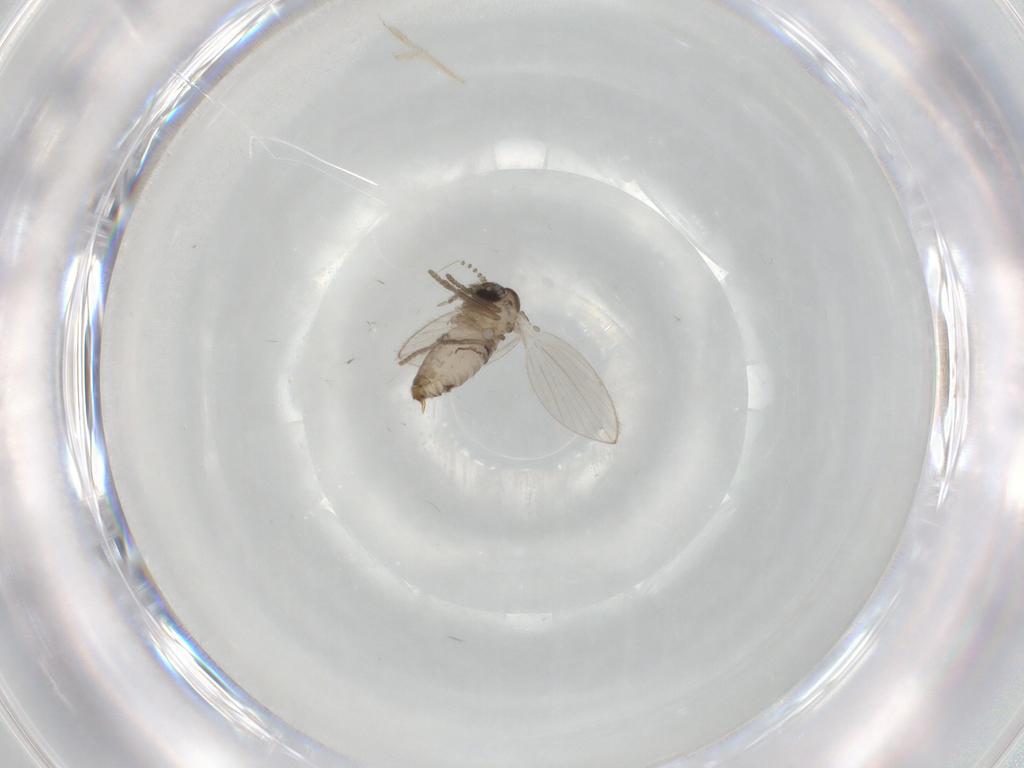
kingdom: Animalia
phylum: Arthropoda
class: Insecta
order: Diptera
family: Psychodidae
